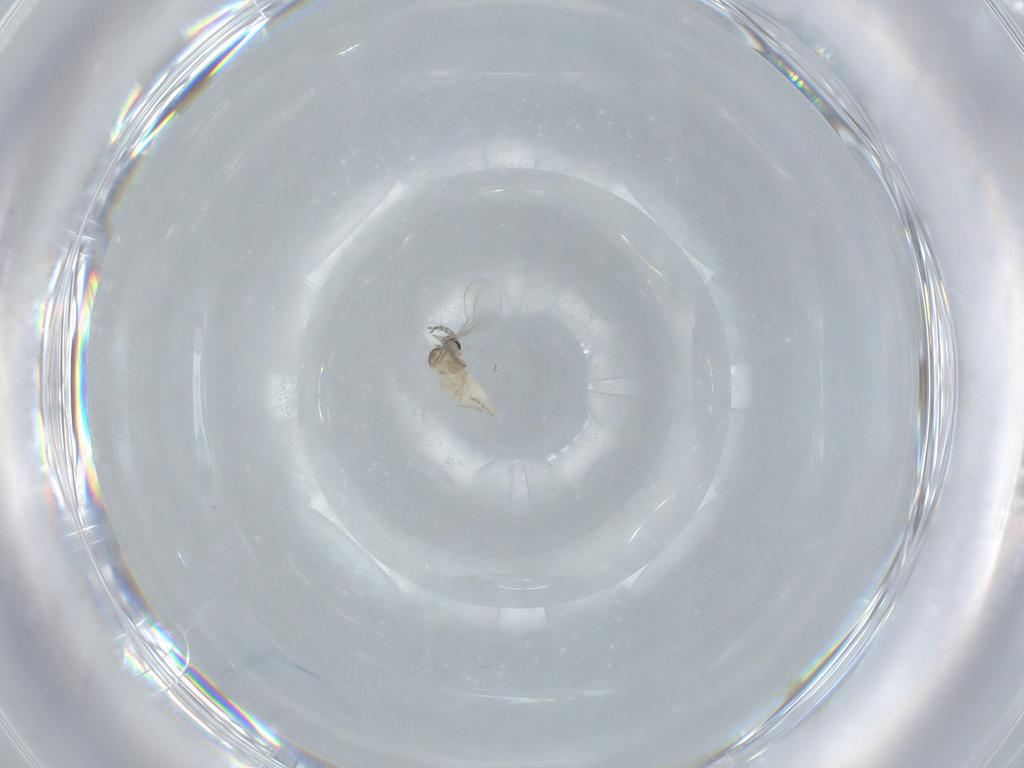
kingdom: Animalia
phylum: Arthropoda
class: Insecta
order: Diptera
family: Cecidomyiidae
